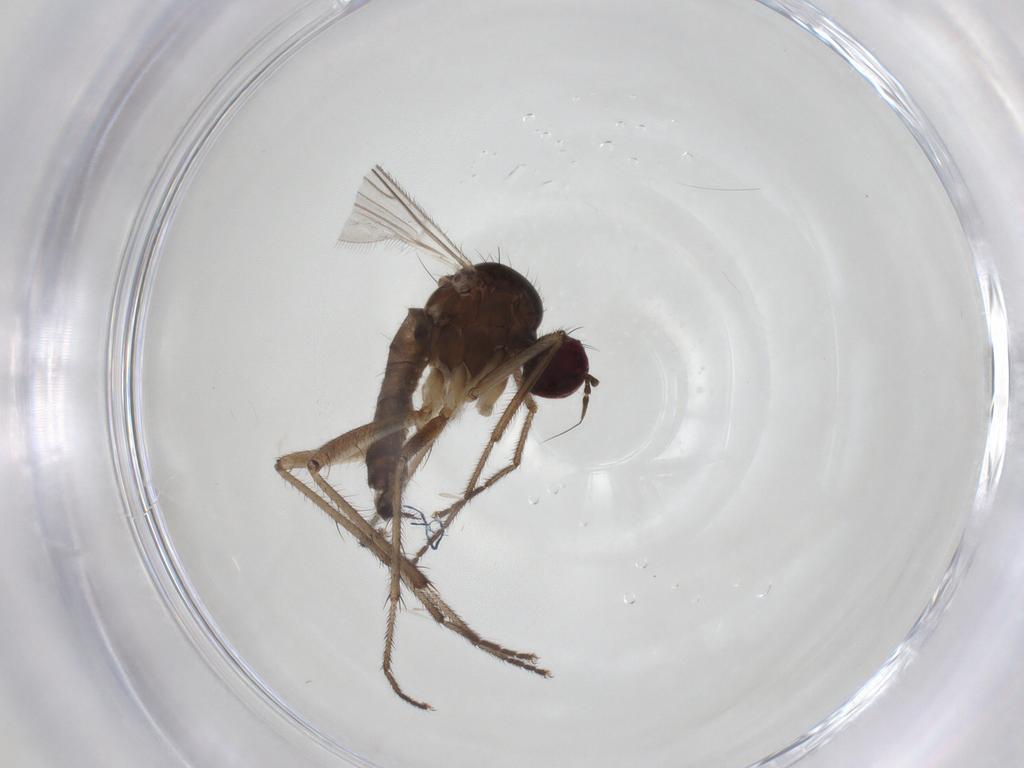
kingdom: Animalia
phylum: Arthropoda
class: Insecta
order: Diptera
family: Hybotidae
